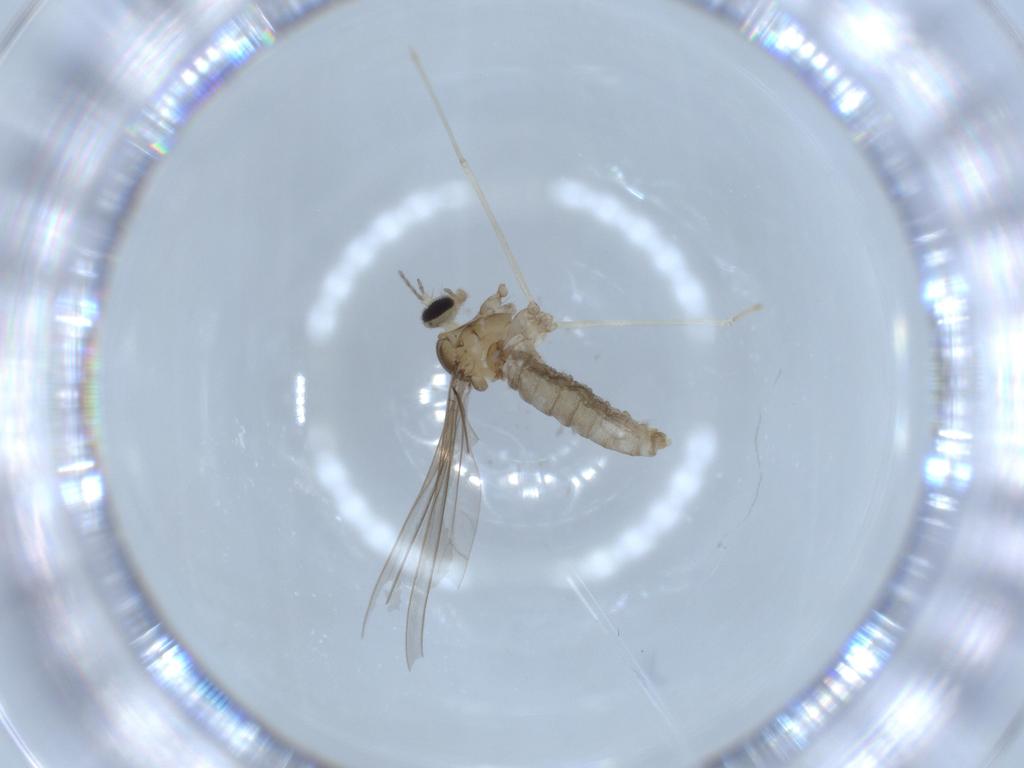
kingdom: Animalia
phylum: Arthropoda
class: Insecta
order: Diptera
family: Cecidomyiidae
